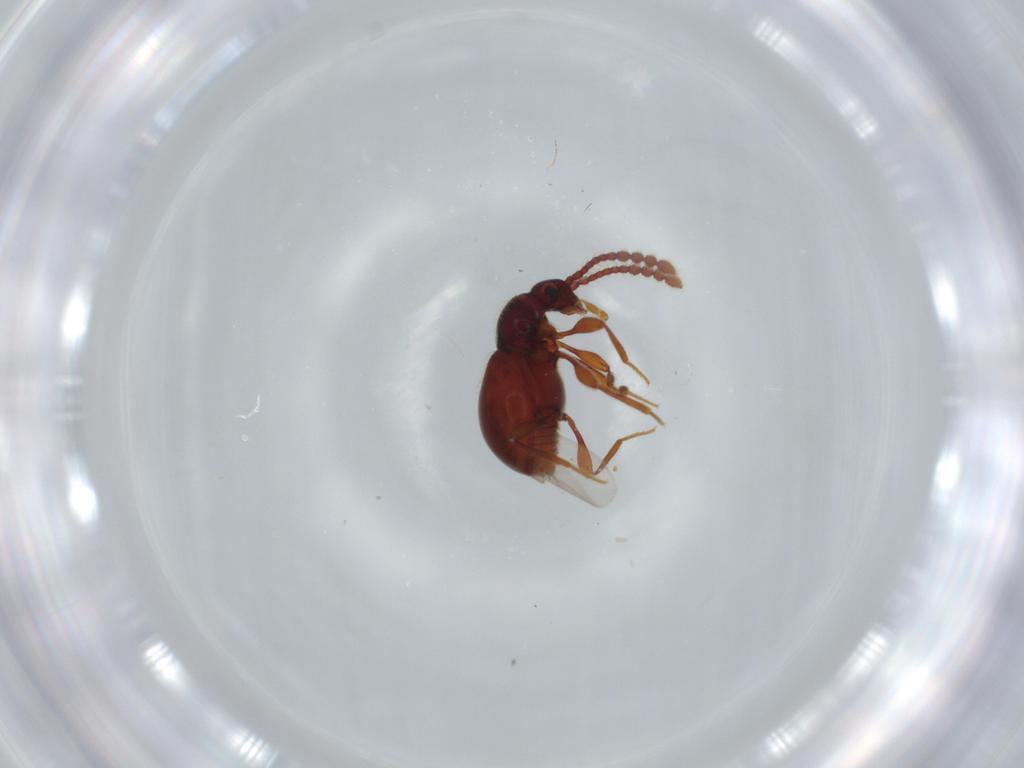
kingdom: Animalia
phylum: Arthropoda
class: Insecta
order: Coleoptera
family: Staphylinidae
